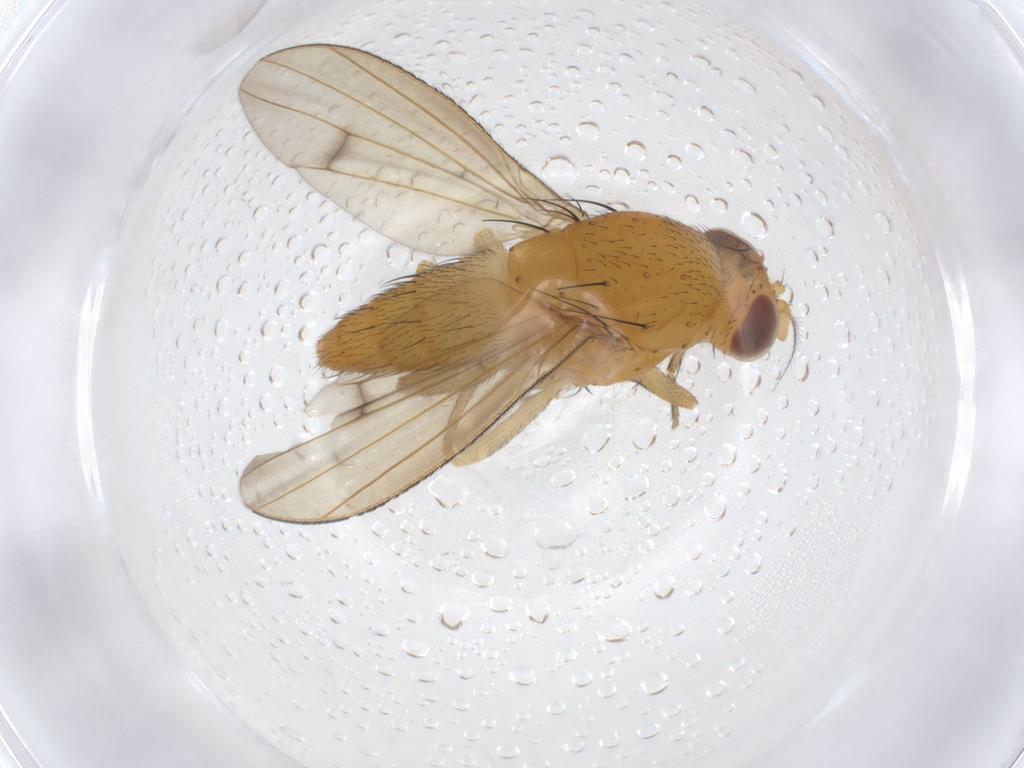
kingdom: Animalia
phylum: Arthropoda
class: Insecta
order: Diptera
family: Lauxaniidae
